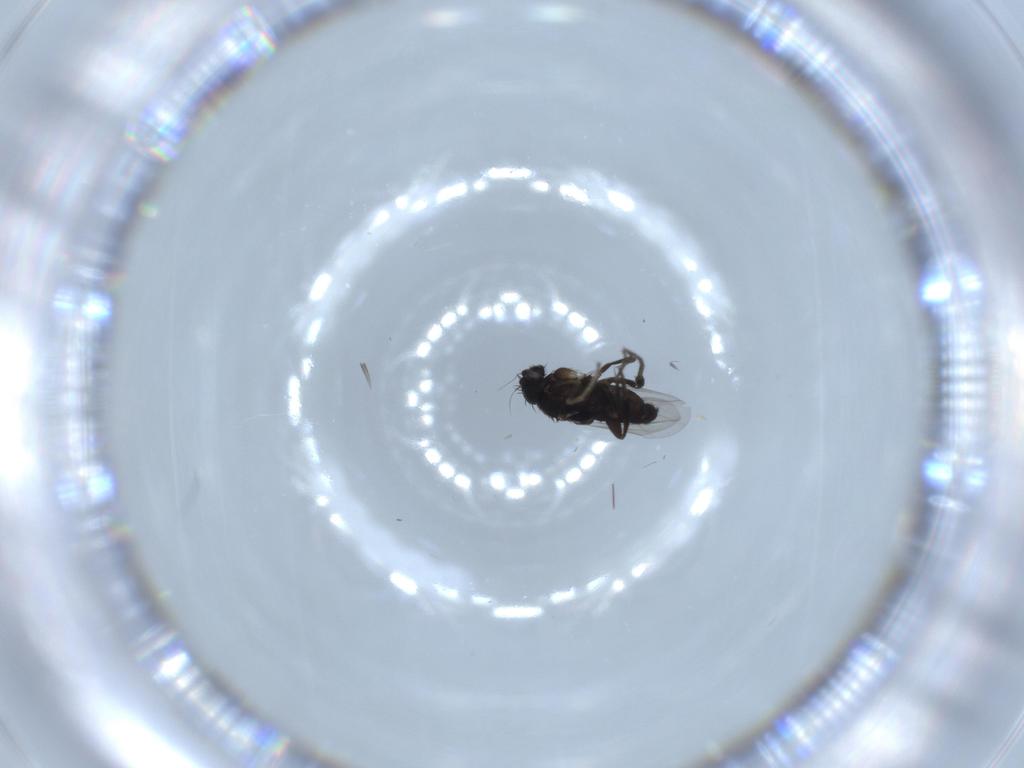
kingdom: Animalia
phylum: Arthropoda
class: Insecta
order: Diptera
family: Phoridae
